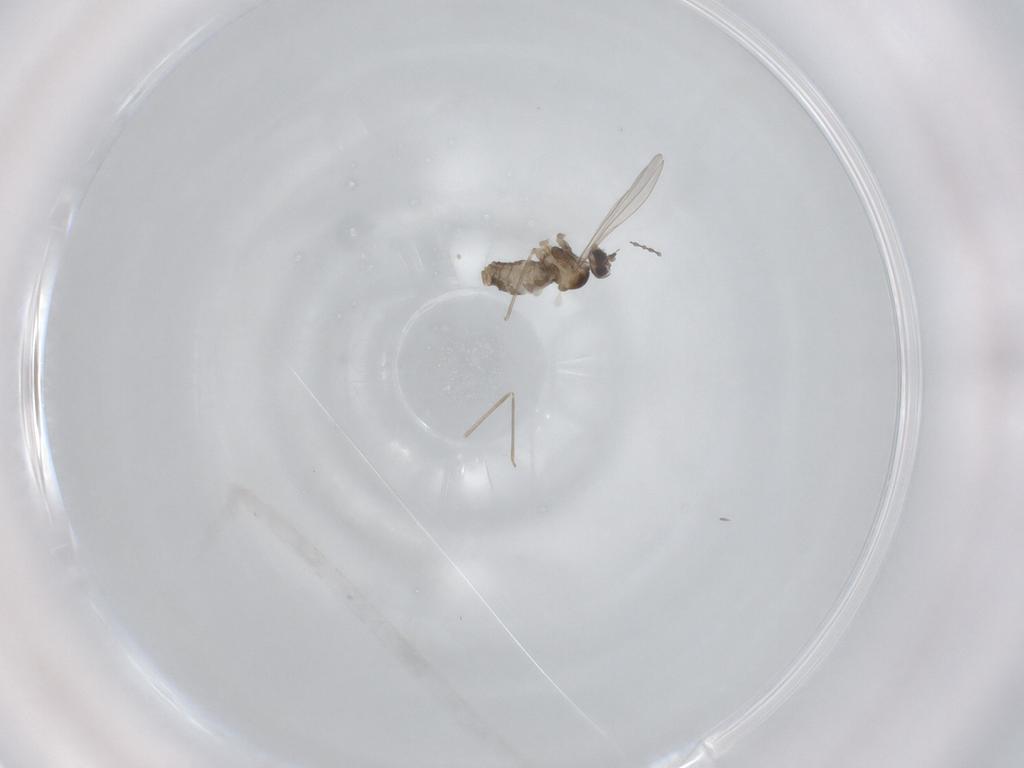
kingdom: Animalia
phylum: Arthropoda
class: Insecta
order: Diptera
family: Cecidomyiidae
